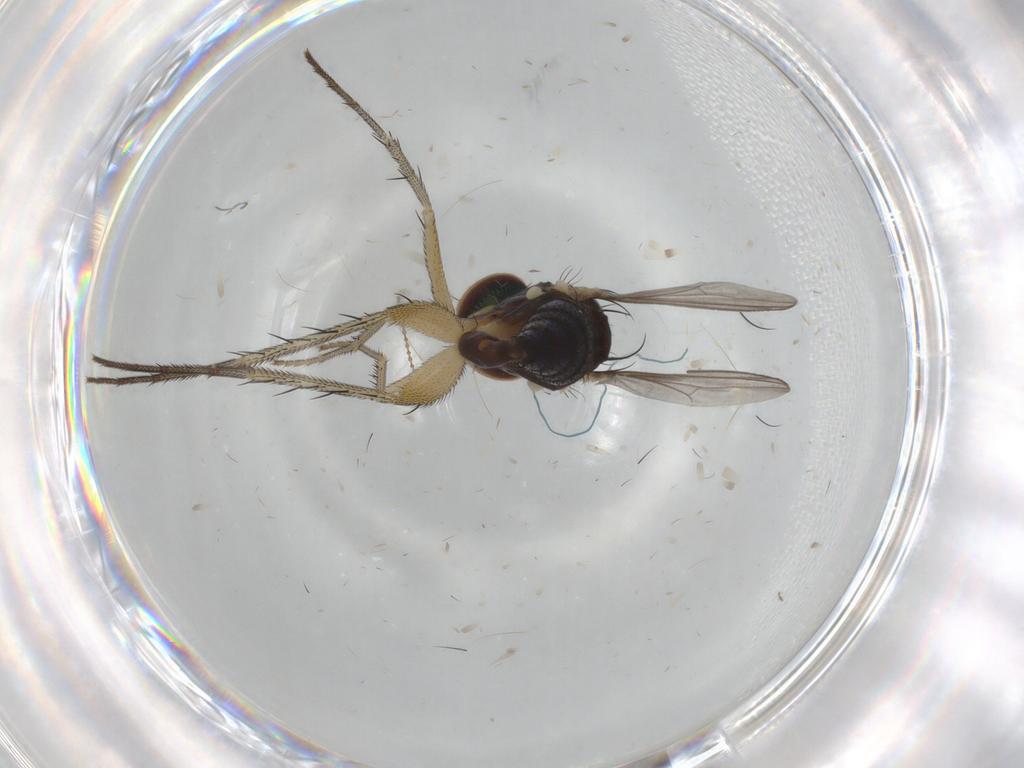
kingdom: Animalia
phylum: Arthropoda
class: Insecta
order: Diptera
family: Dolichopodidae
